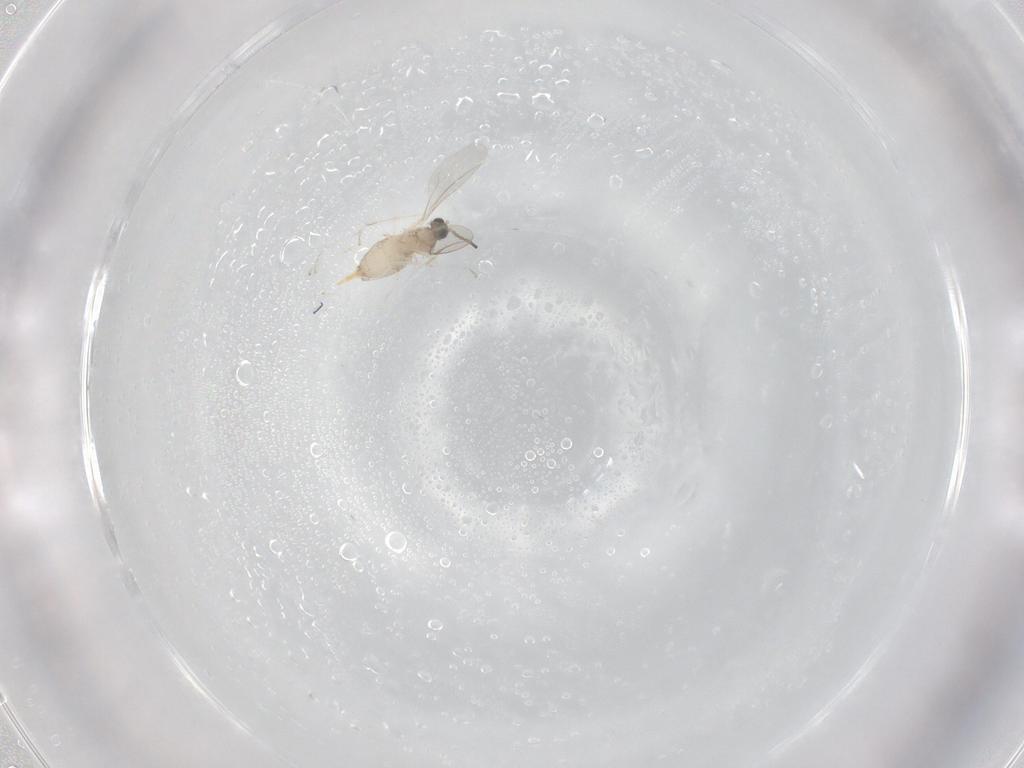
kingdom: Animalia
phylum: Arthropoda
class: Insecta
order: Diptera
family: Cecidomyiidae
